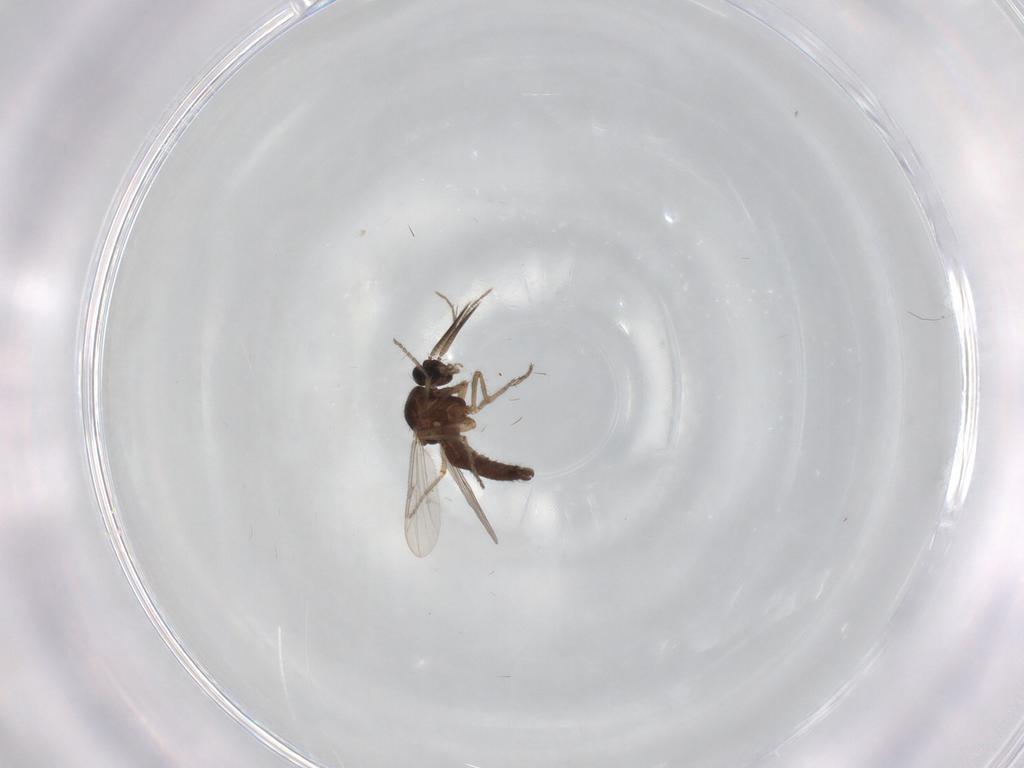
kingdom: Animalia
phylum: Arthropoda
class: Insecta
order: Diptera
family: Ceratopogonidae
